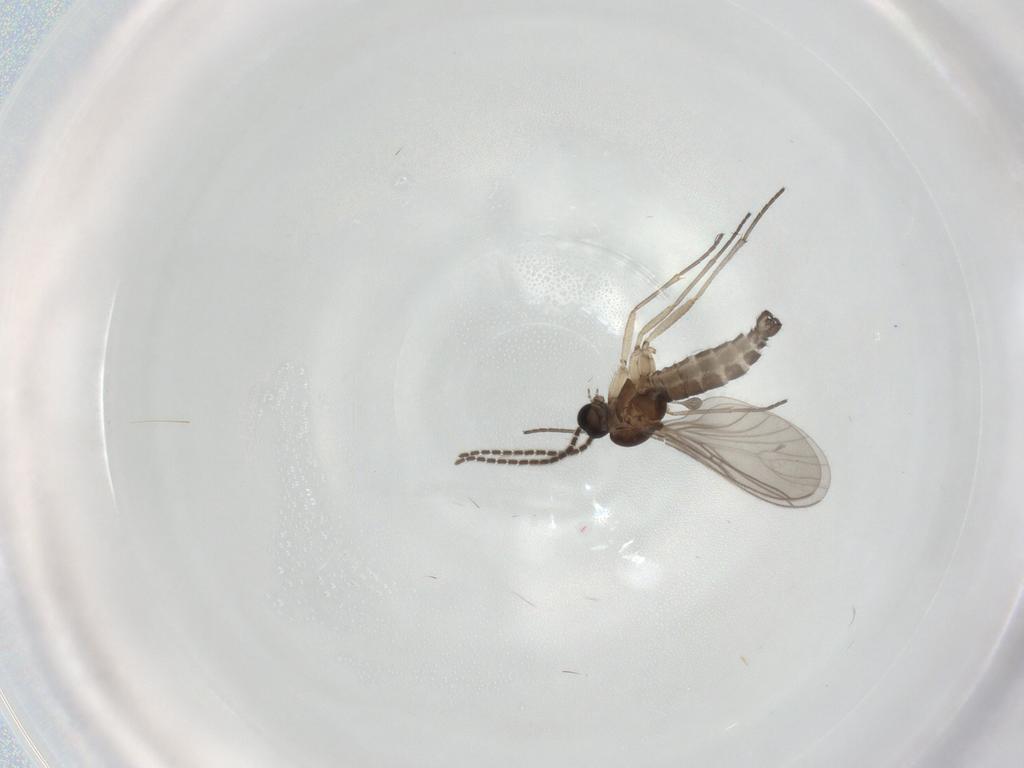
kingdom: Animalia
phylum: Arthropoda
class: Insecta
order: Diptera
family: Sciaridae
